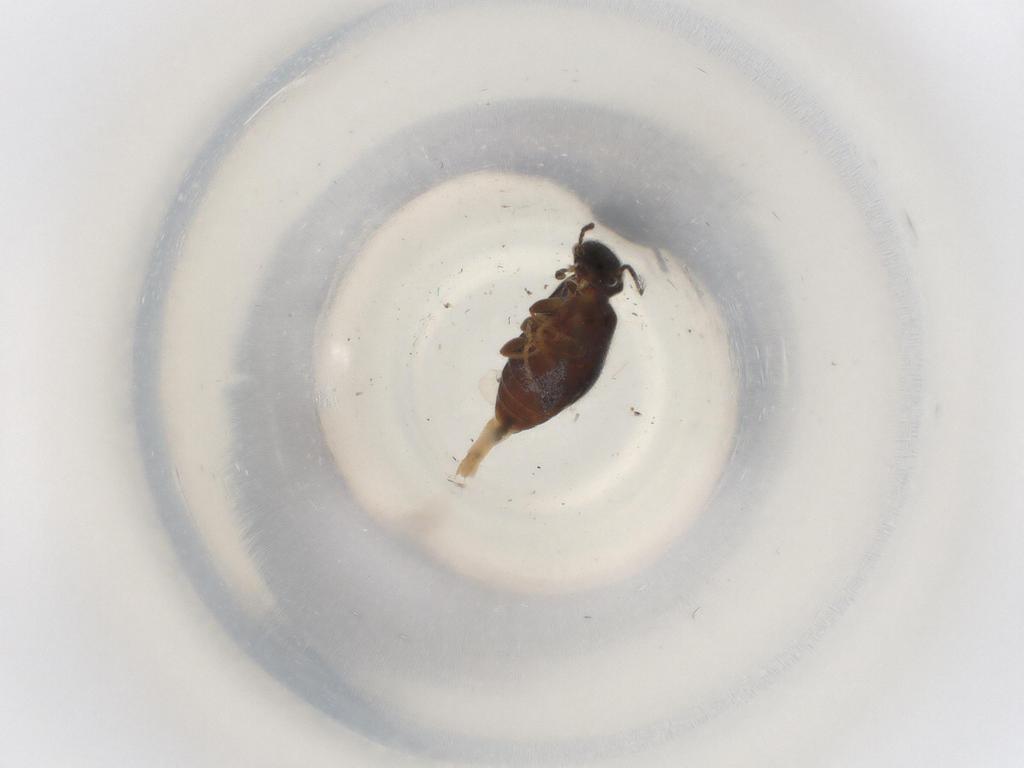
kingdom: Animalia
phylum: Arthropoda
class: Insecta
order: Coleoptera
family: Anthicidae
